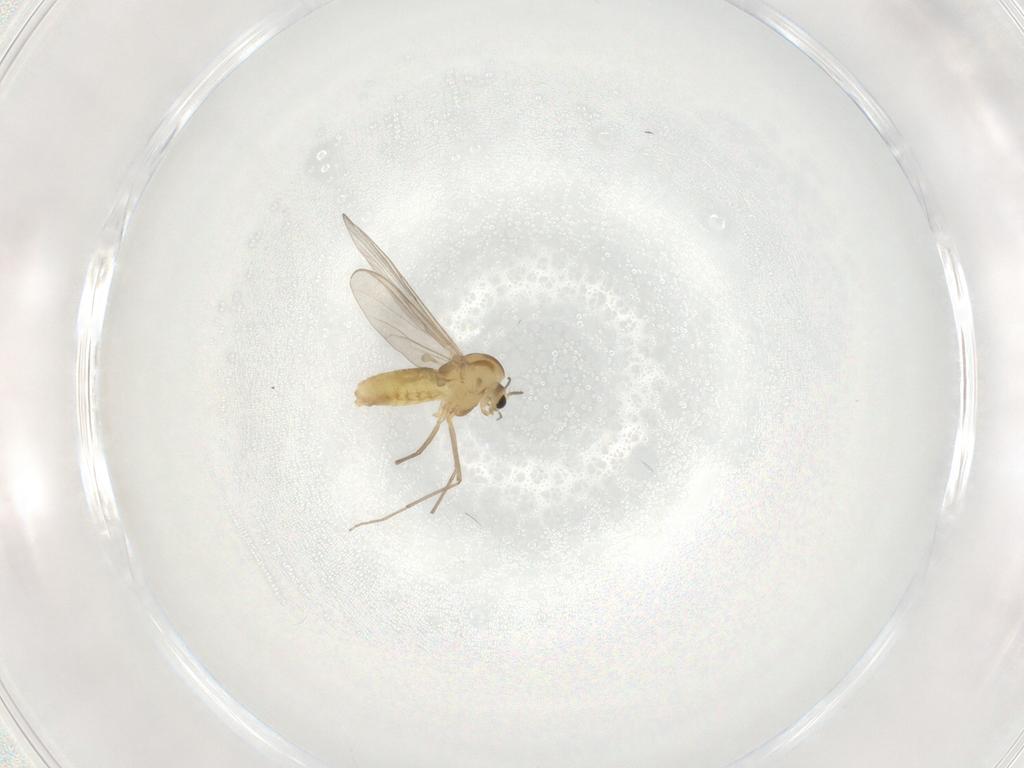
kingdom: Animalia
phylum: Arthropoda
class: Insecta
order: Diptera
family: Chironomidae
